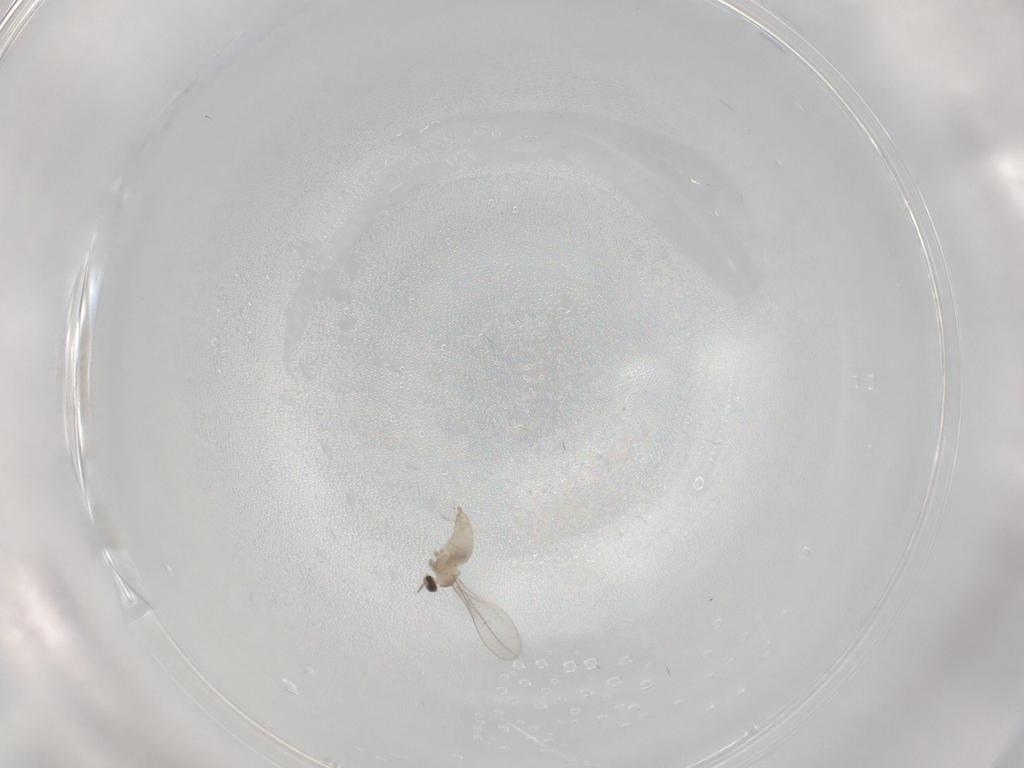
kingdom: Animalia
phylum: Arthropoda
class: Insecta
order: Diptera
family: Cecidomyiidae
